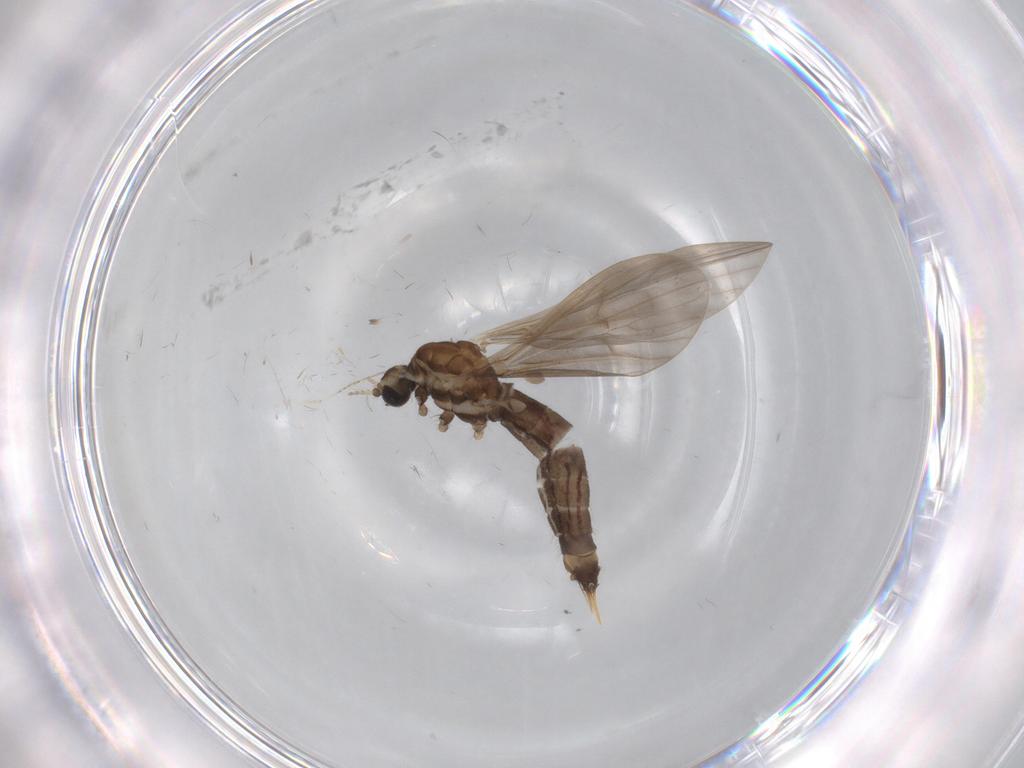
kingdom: Animalia
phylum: Arthropoda
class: Insecta
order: Diptera
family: Limoniidae
